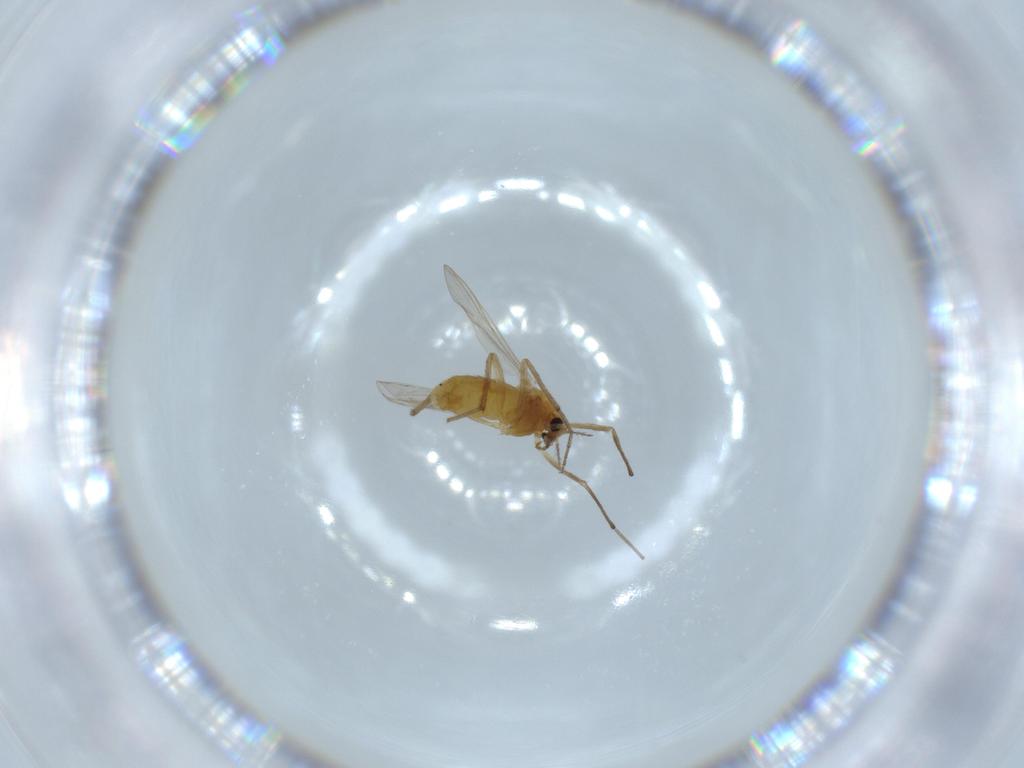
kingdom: Animalia
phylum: Arthropoda
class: Insecta
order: Diptera
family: Chironomidae
